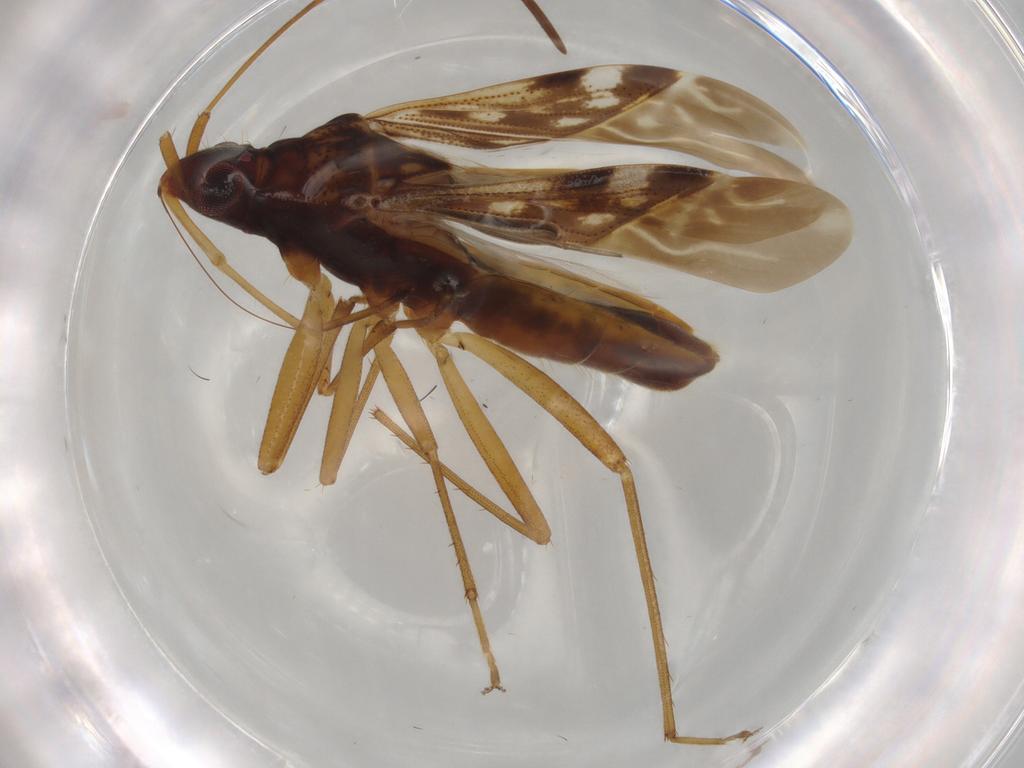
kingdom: Animalia
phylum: Arthropoda
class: Insecta
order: Hemiptera
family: Rhyparochromidae
